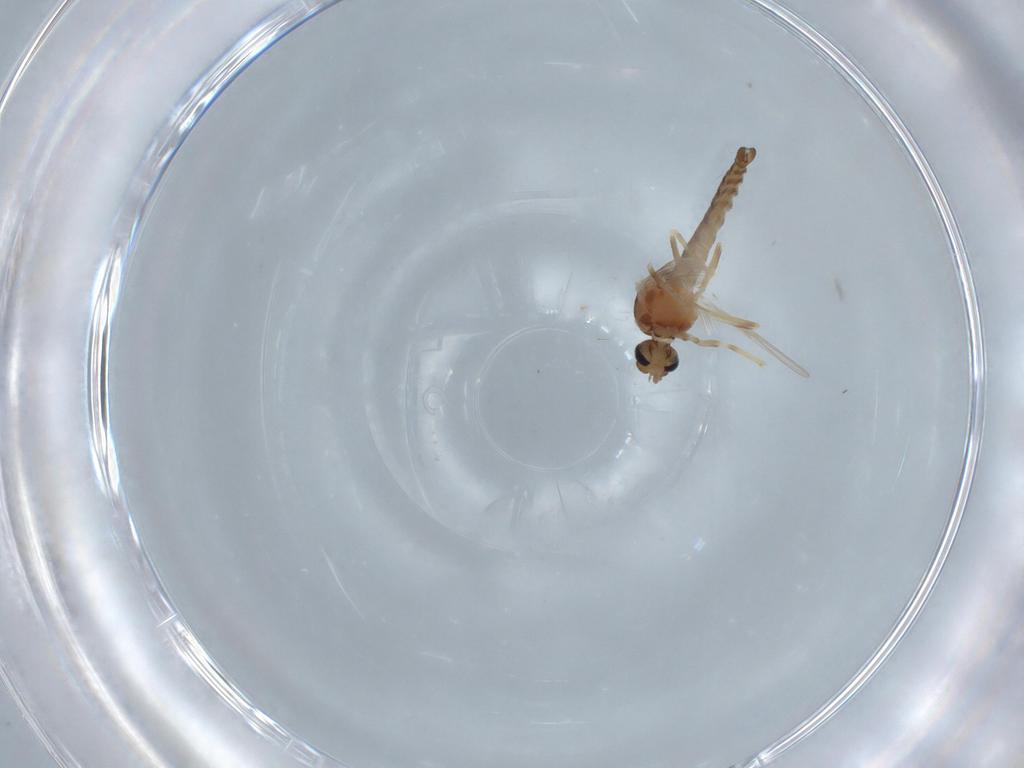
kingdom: Animalia
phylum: Arthropoda
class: Insecta
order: Diptera
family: Ceratopogonidae
